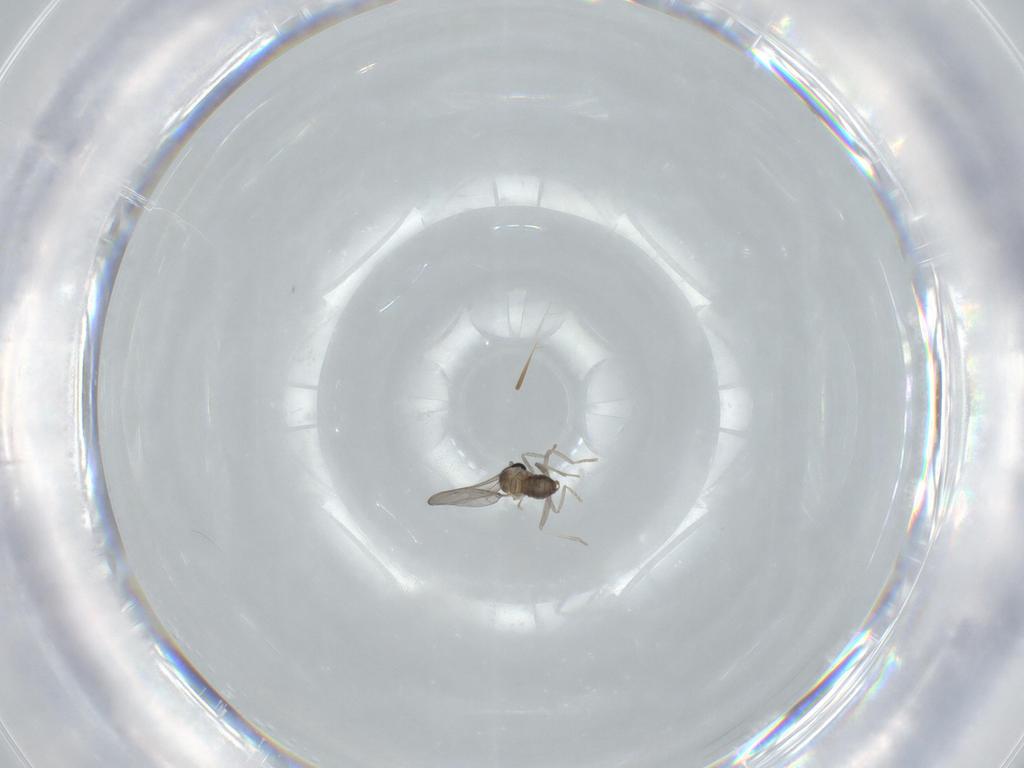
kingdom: Animalia
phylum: Arthropoda
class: Insecta
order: Diptera
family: Cecidomyiidae
